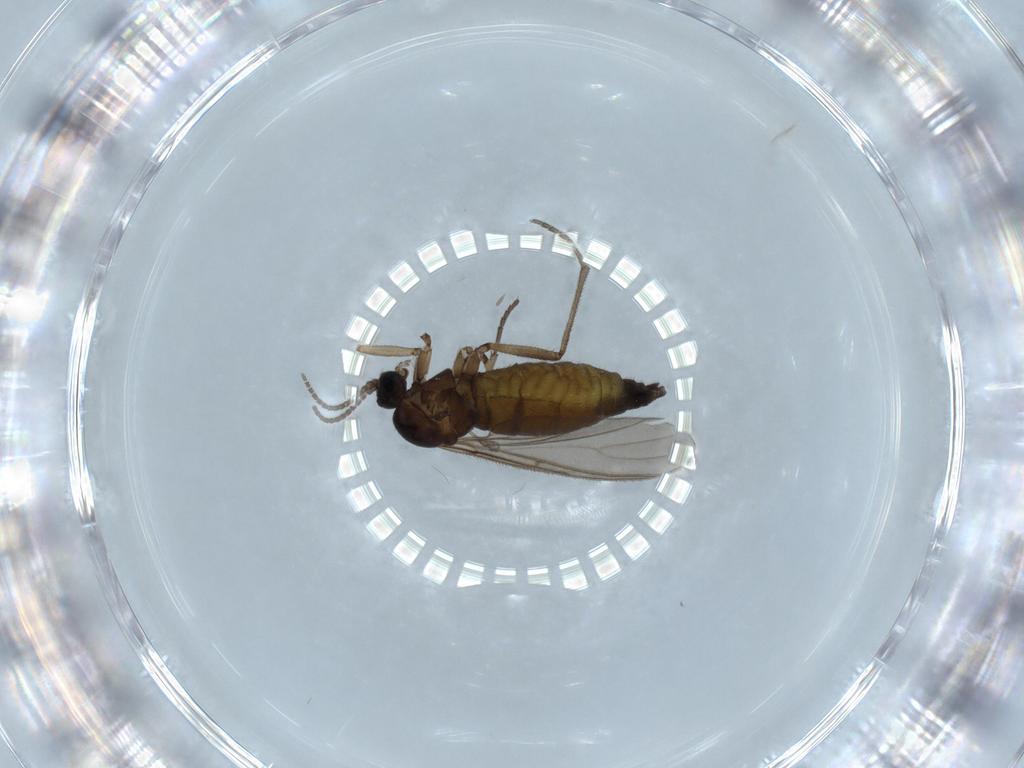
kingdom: Animalia
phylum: Arthropoda
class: Insecta
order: Diptera
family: Sciaridae
